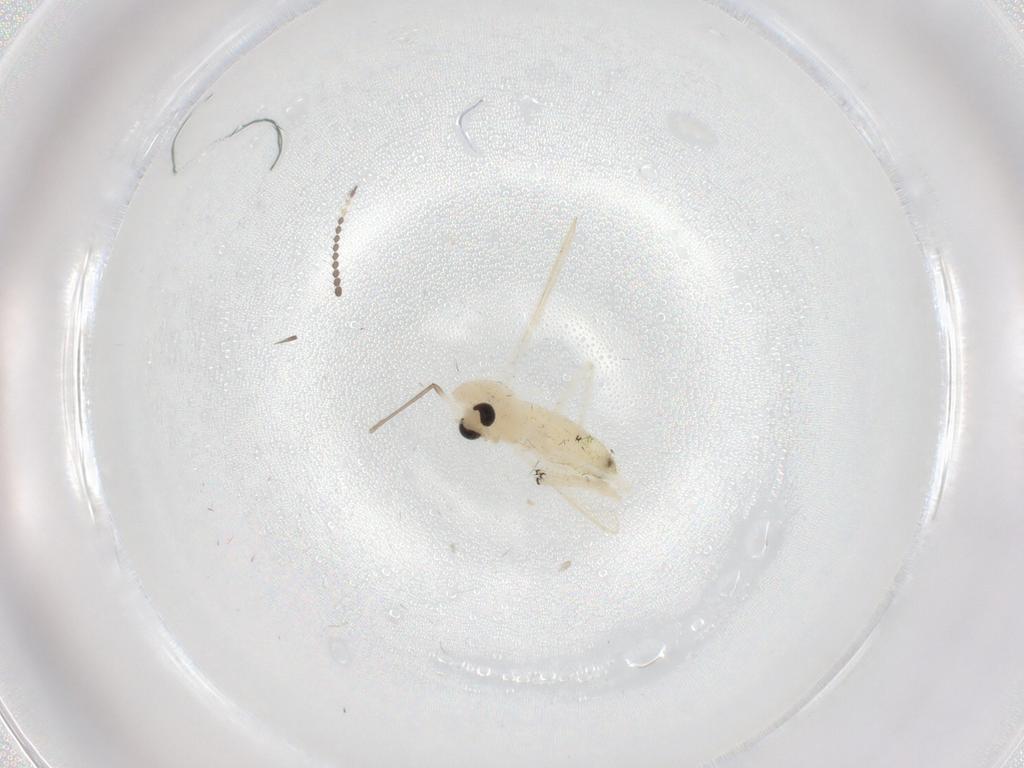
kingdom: Animalia
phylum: Arthropoda
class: Insecta
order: Diptera
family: Chironomidae
